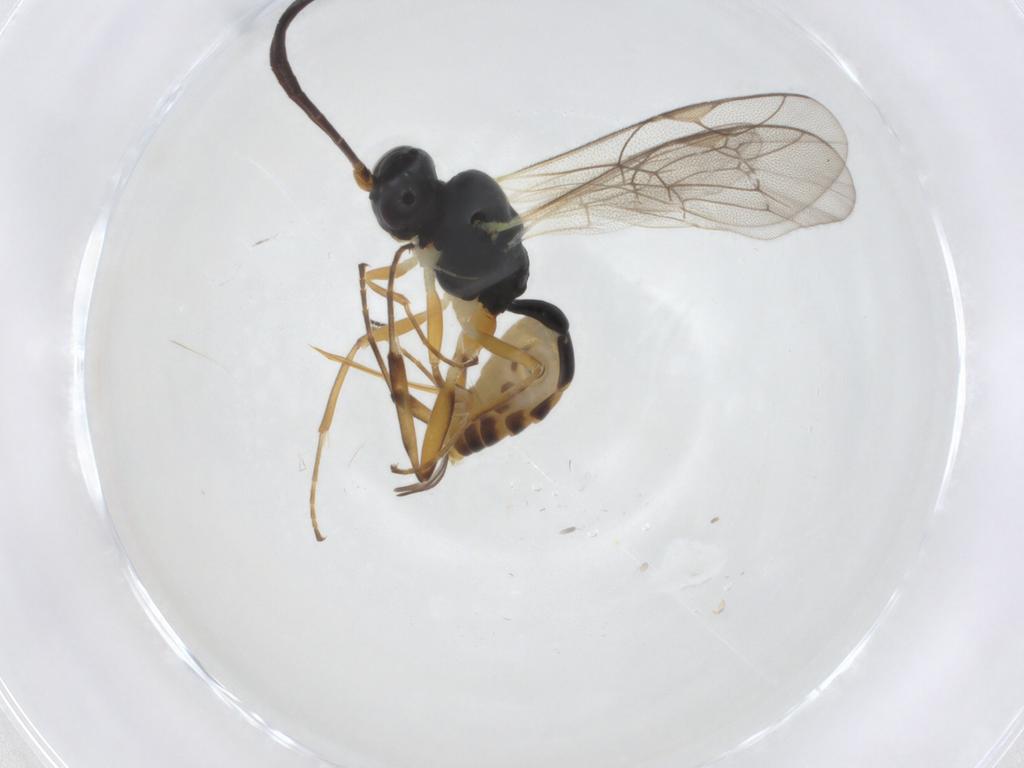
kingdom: Animalia
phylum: Arthropoda
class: Insecta
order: Hymenoptera
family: Ichneumonidae
